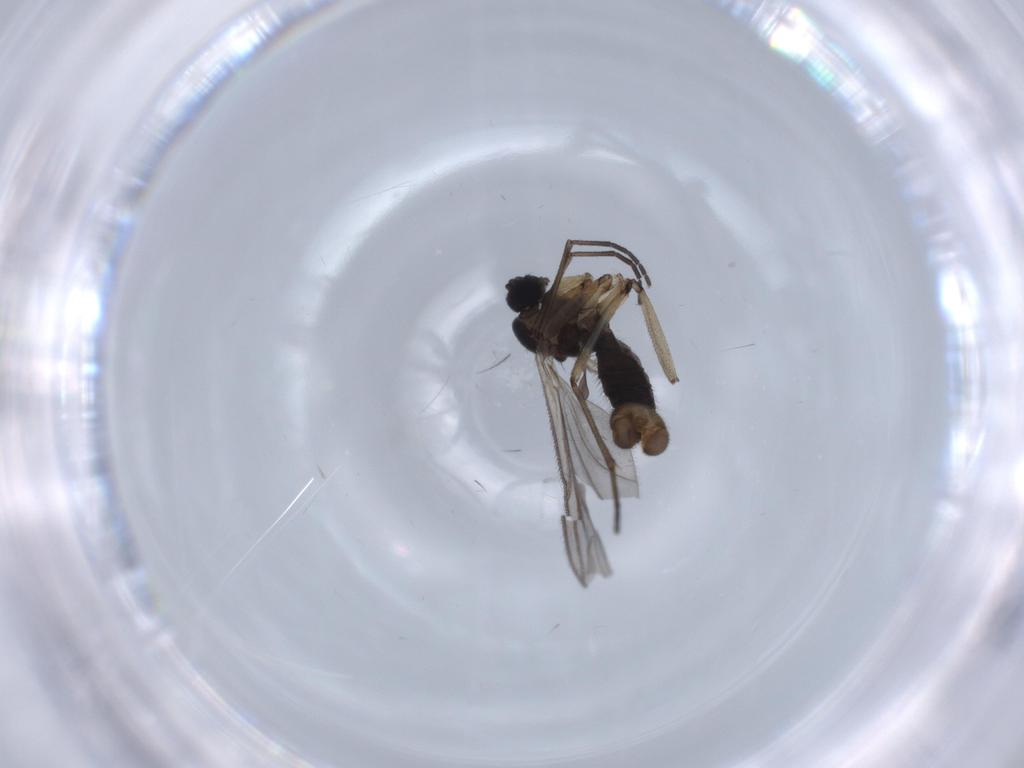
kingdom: Animalia
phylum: Arthropoda
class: Insecta
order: Diptera
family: Sciaridae
